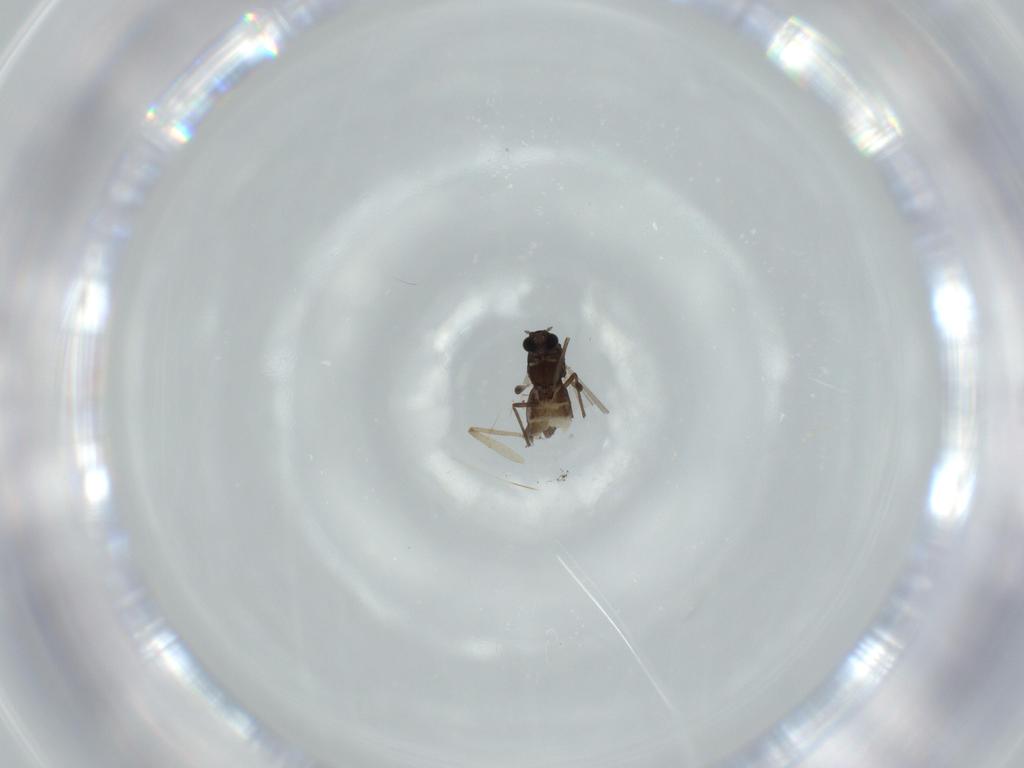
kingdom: Animalia
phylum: Arthropoda
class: Insecta
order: Diptera
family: Chironomidae
